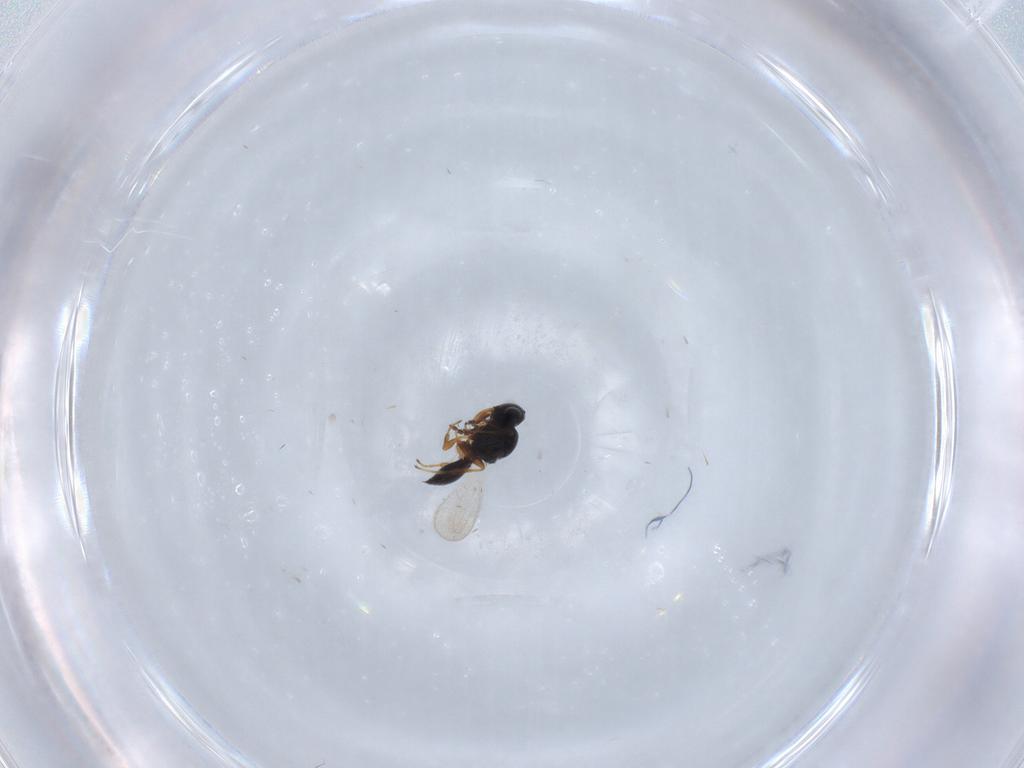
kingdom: Animalia
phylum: Arthropoda
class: Insecta
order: Hymenoptera
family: Platygastridae
